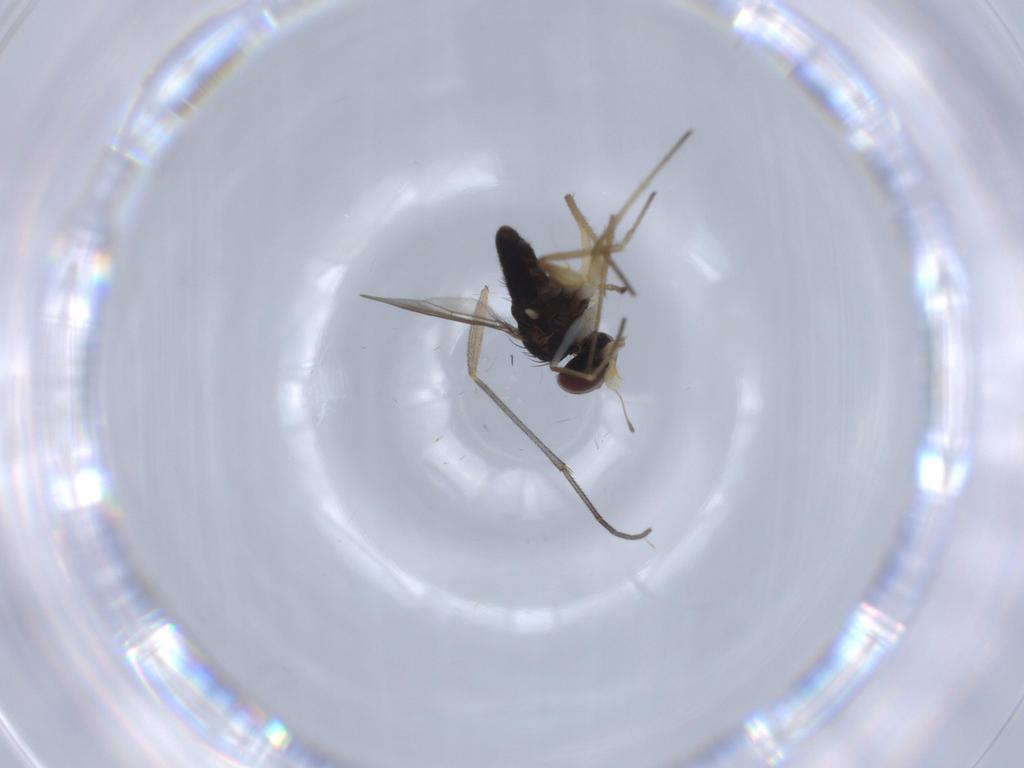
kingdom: Animalia
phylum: Arthropoda
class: Insecta
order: Diptera
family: Dolichopodidae
